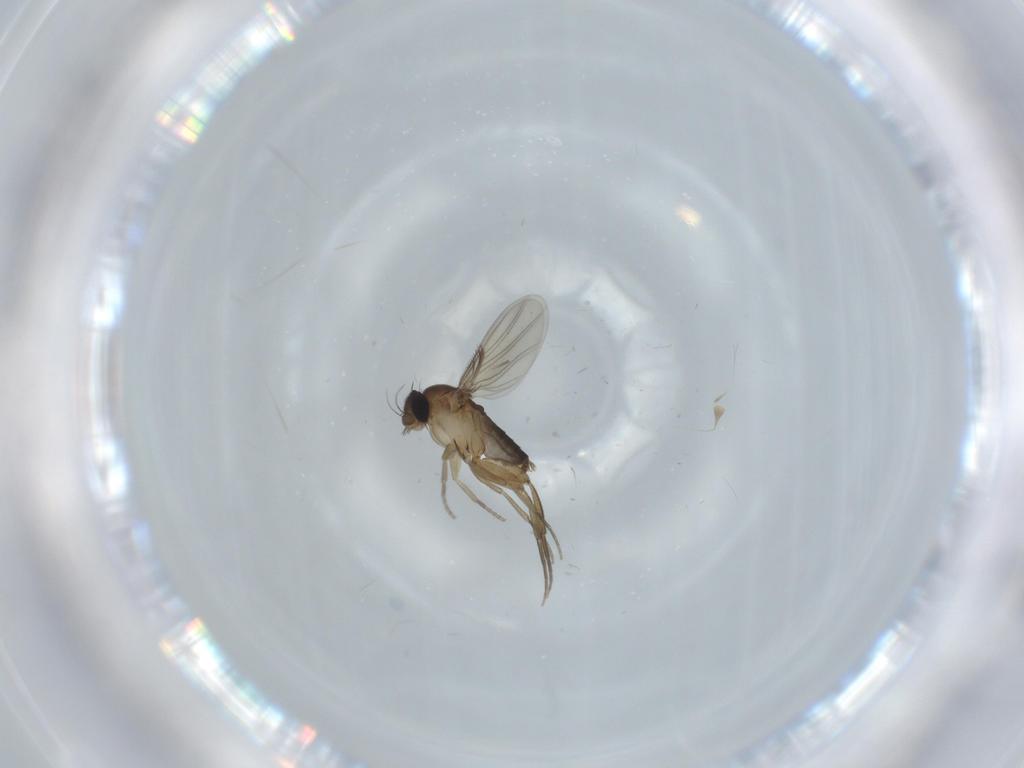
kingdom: Animalia
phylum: Arthropoda
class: Insecta
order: Diptera
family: Phoridae
